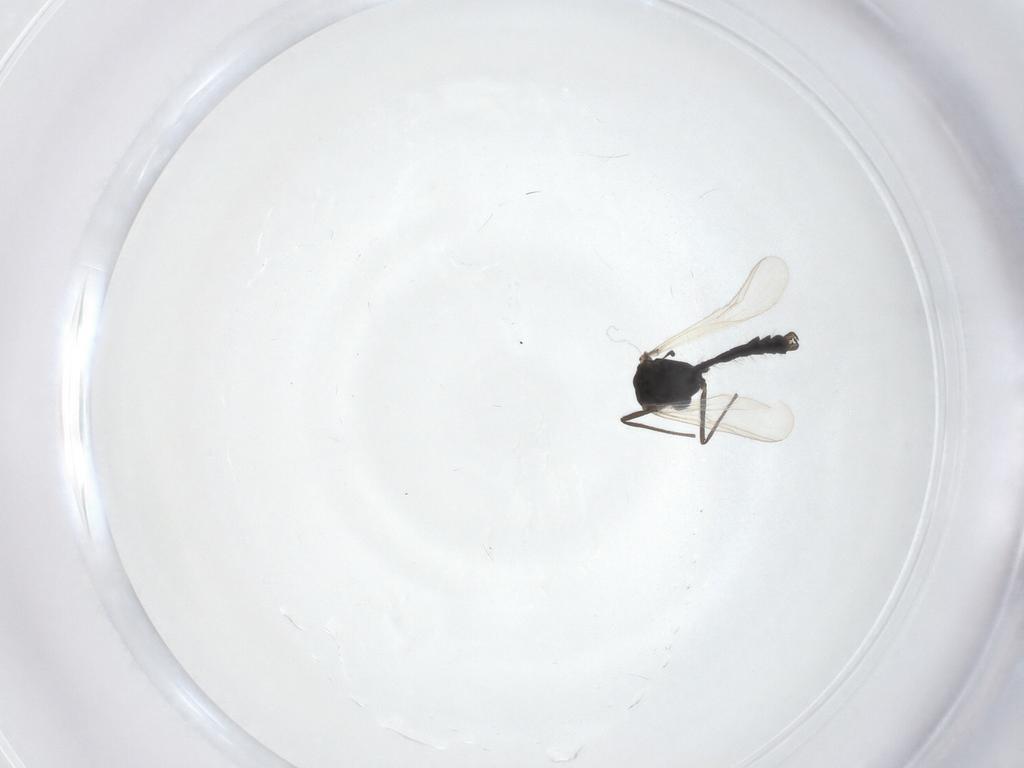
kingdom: Animalia
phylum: Arthropoda
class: Insecta
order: Diptera
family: Chironomidae
